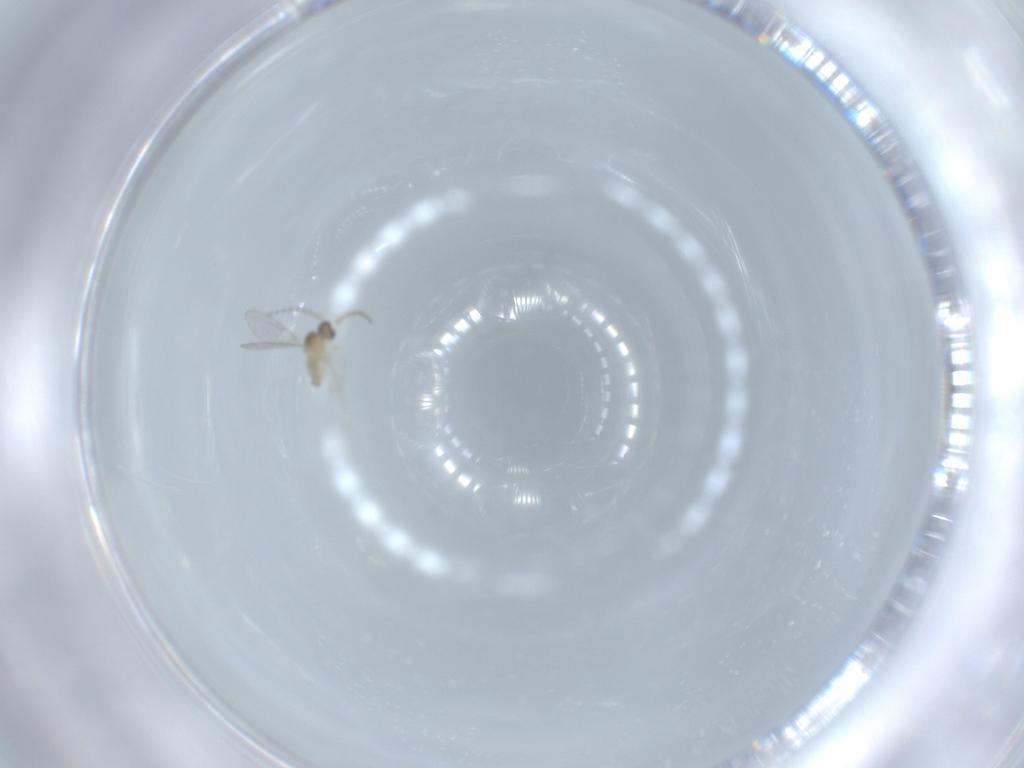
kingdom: Animalia
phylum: Arthropoda
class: Insecta
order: Diptera
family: Cecidomyiidae
